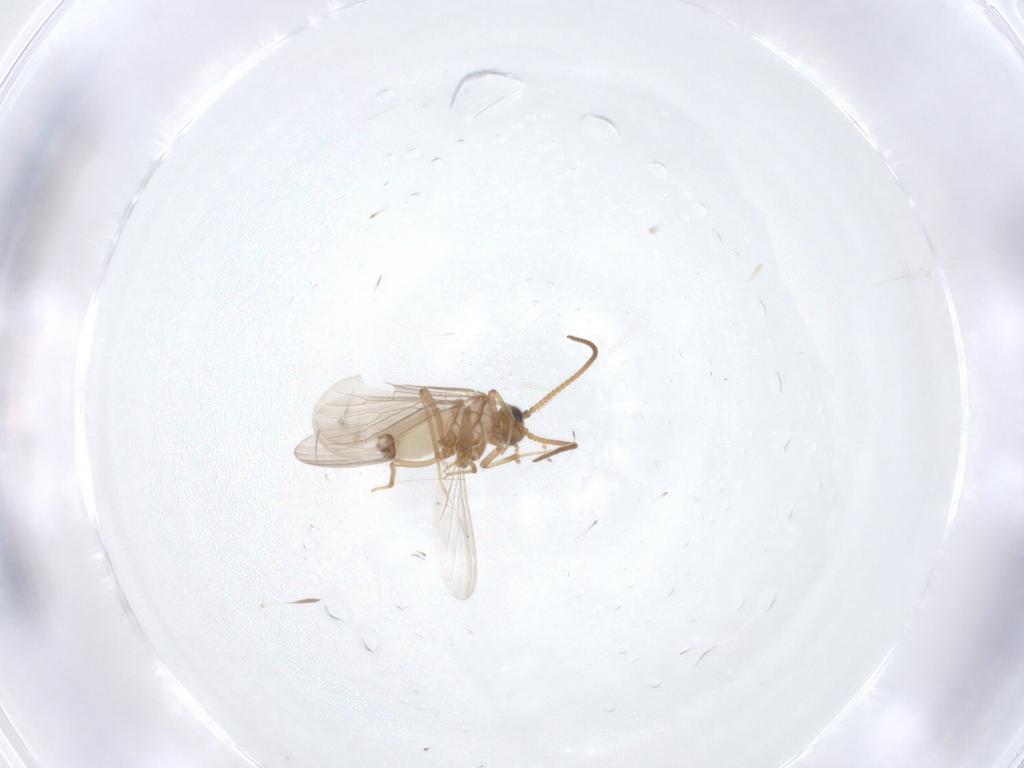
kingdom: Animalia
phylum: Arthropoda
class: Insecta
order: Neuroptera
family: Coniopterygidae
